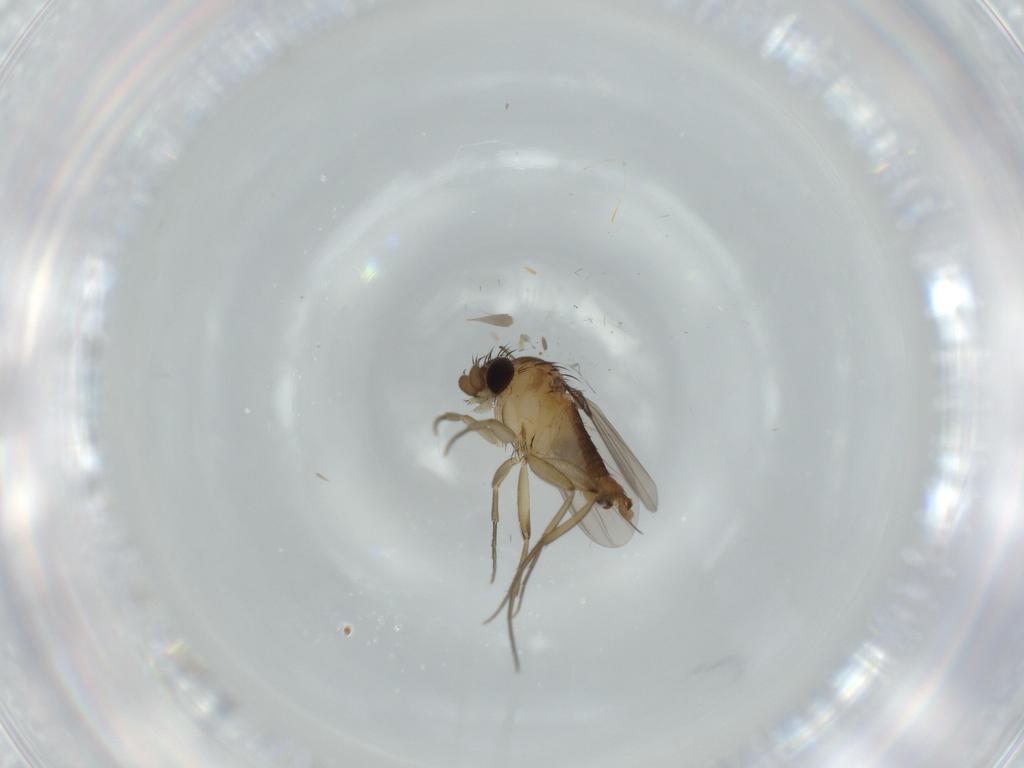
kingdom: Animalia
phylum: Arthropoda
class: Insecta
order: Diptera
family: Phoridae
